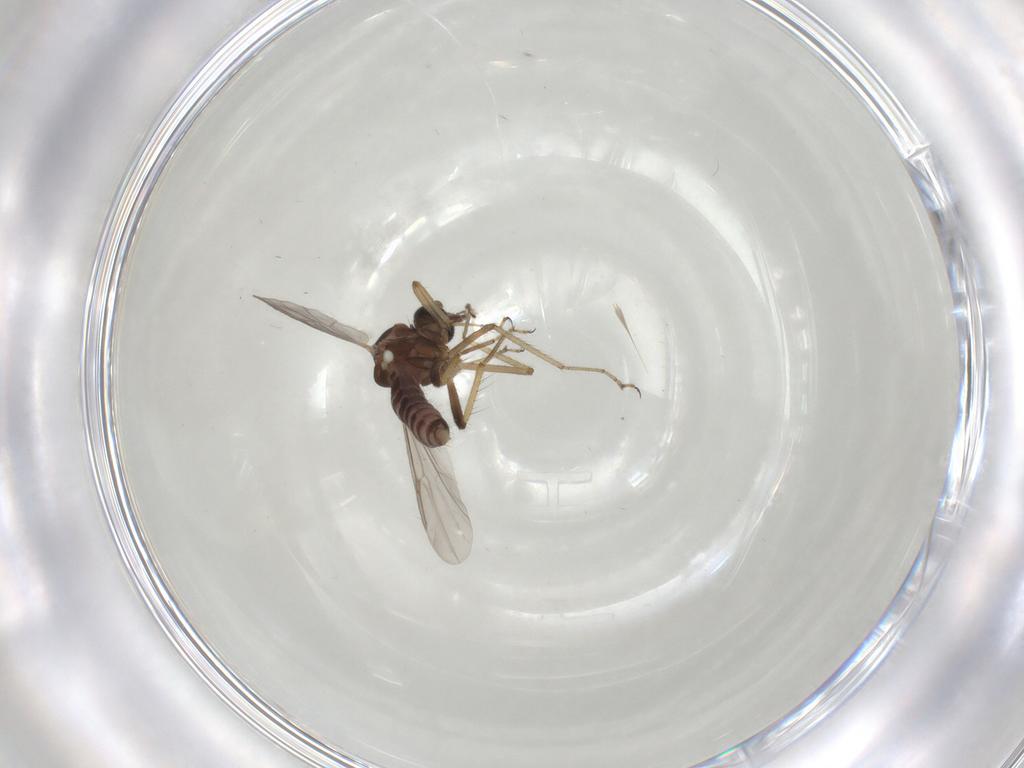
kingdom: Animalia
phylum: Arthropoda
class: Insecta
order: Diptera
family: Ceratopogonidae
